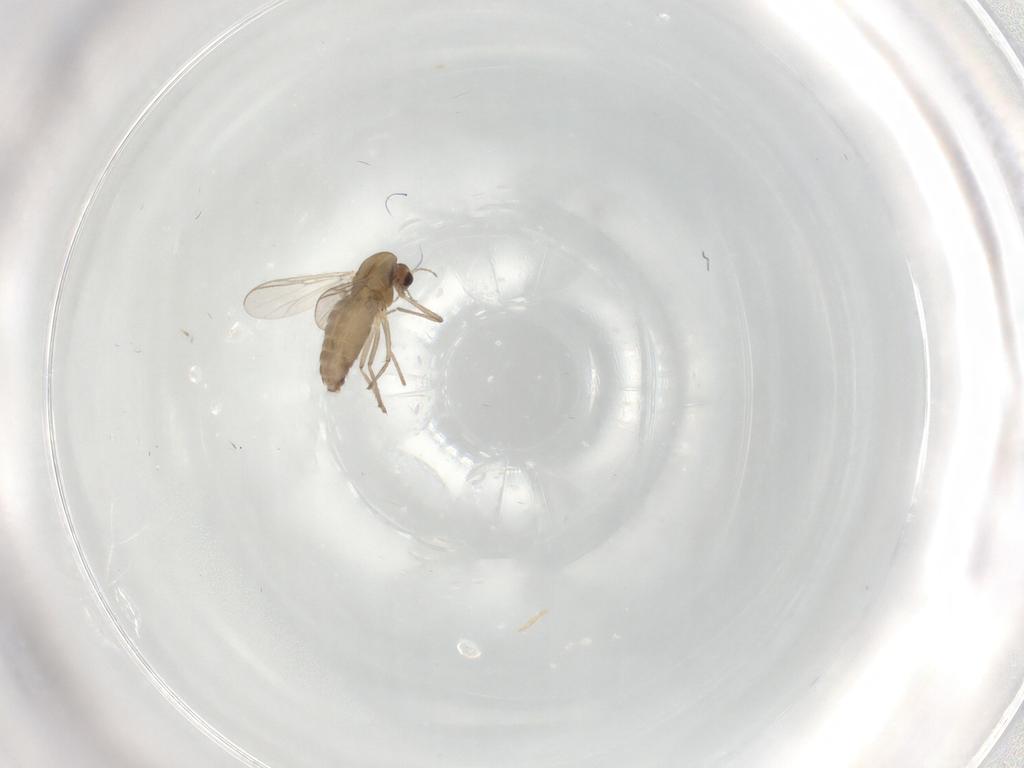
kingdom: Animalia
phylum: Arthropoda
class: Insecta
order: Diptera
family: Chironomidae
